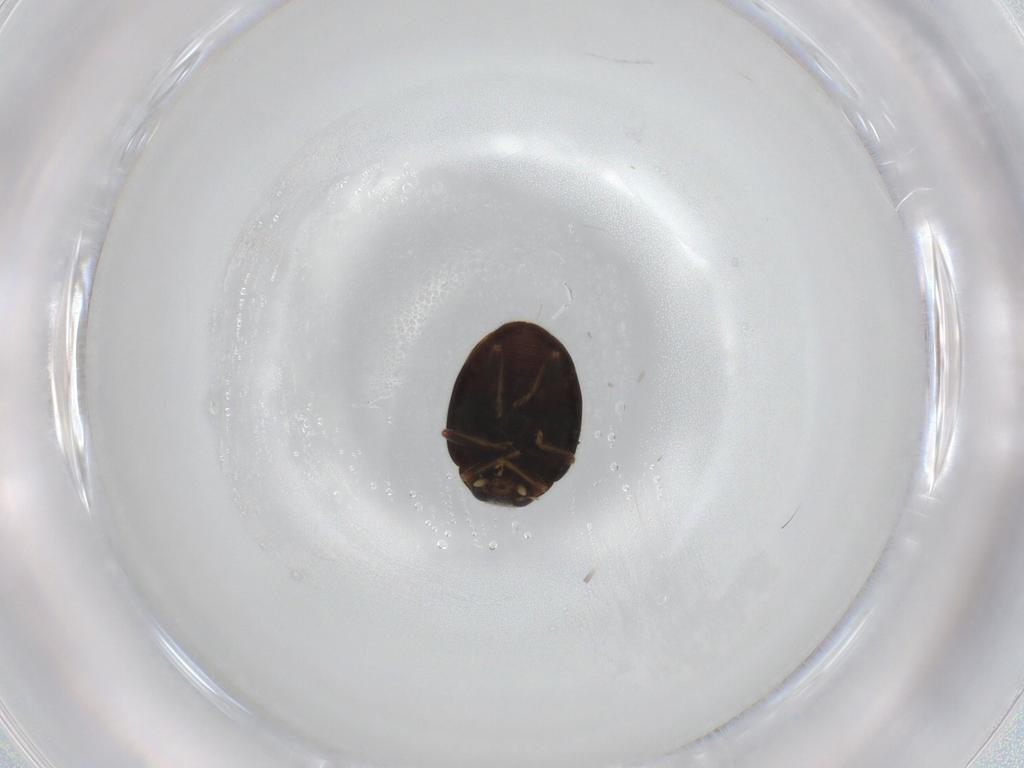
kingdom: Animalia
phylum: Arthropoda
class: Insecta
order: Coleoptera
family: Coccinellidae
